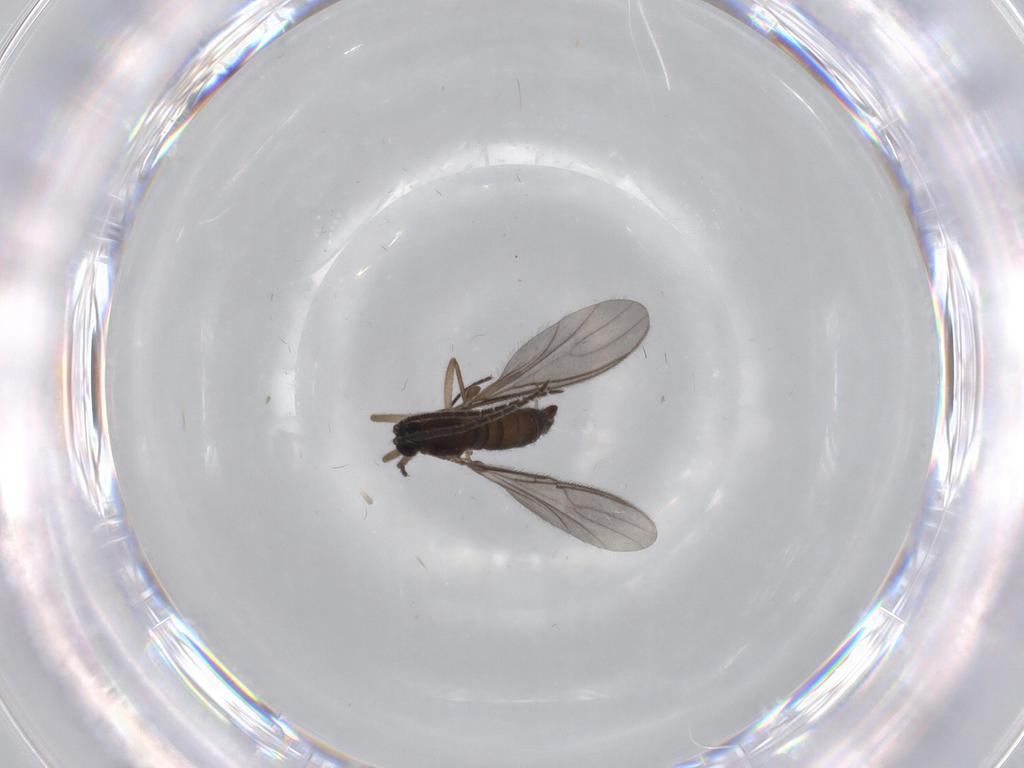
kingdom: Animalia
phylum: Arthropoda
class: Insecta
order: Diptera
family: Sciaridae
